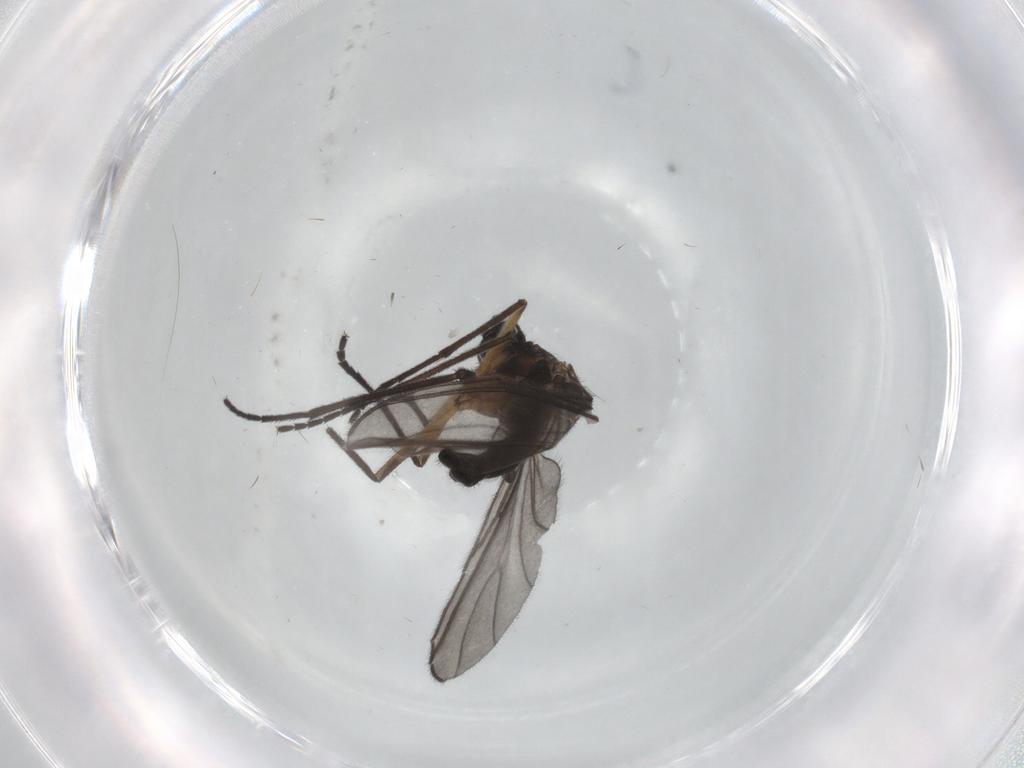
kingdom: Animalia
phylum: Arthropoda
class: Insecta
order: Diptera
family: Sciaridae
